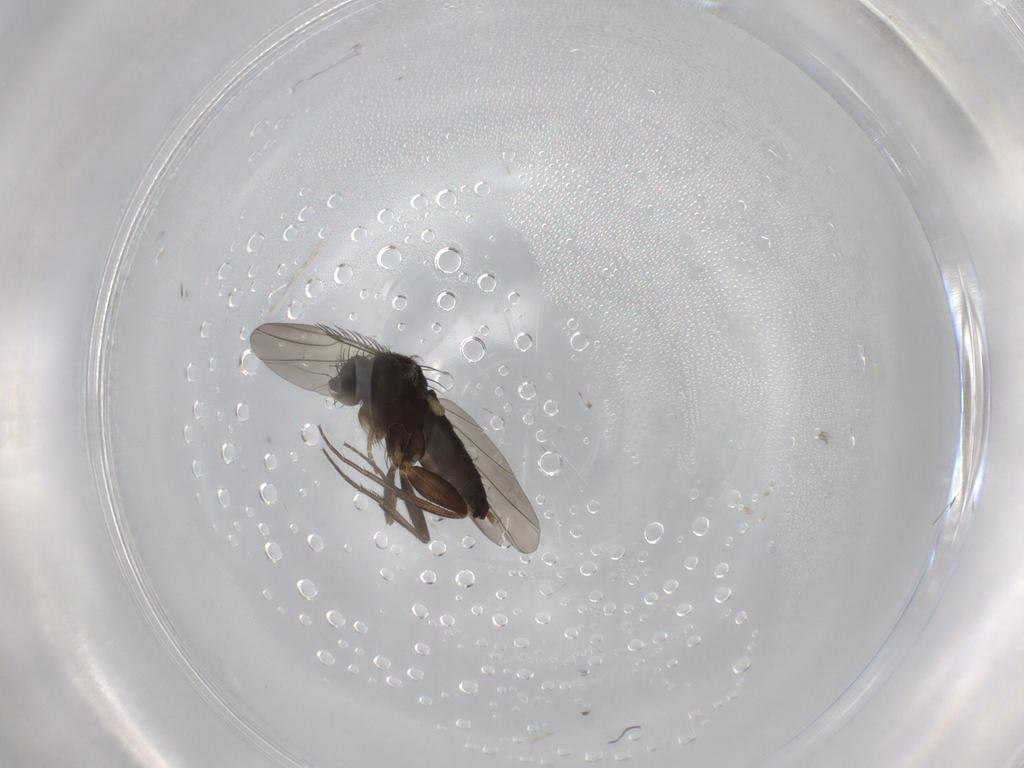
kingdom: Animalia
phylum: Arthropoda
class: Insecta
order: Diptera
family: Phoridae
